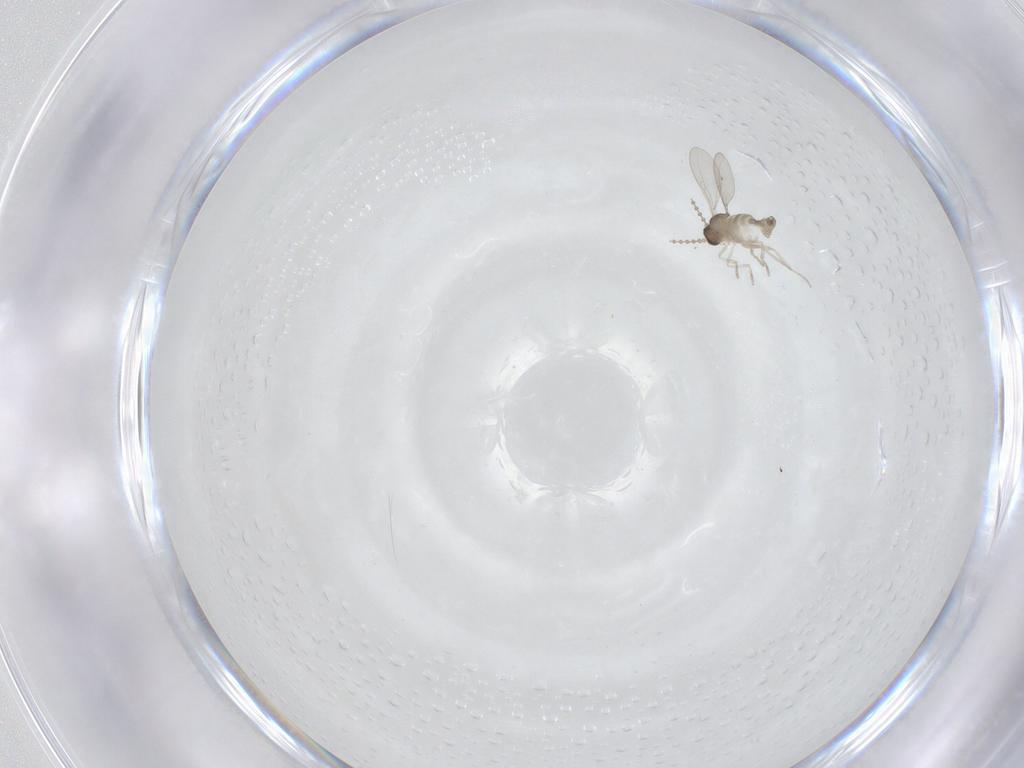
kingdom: Animalia
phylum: Arthropoda
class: Insecta
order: Diptera
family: Cecidomyiidae
